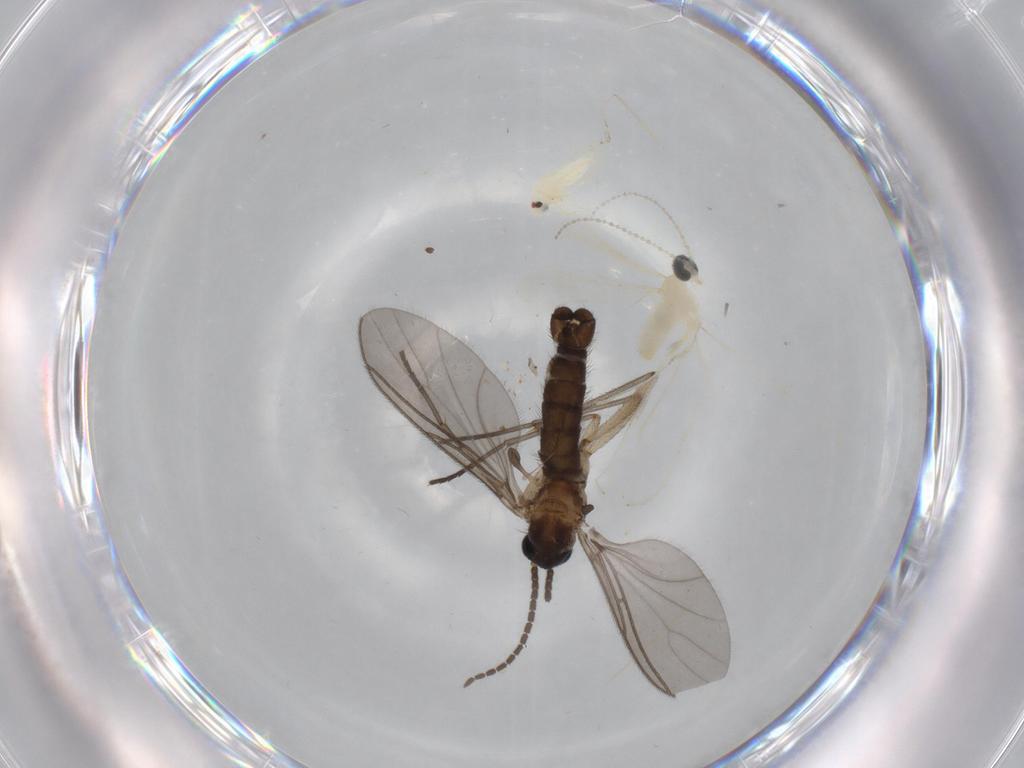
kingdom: Animalia
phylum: Arthropoda
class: Insecta
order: Diptera
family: Sciaridae
